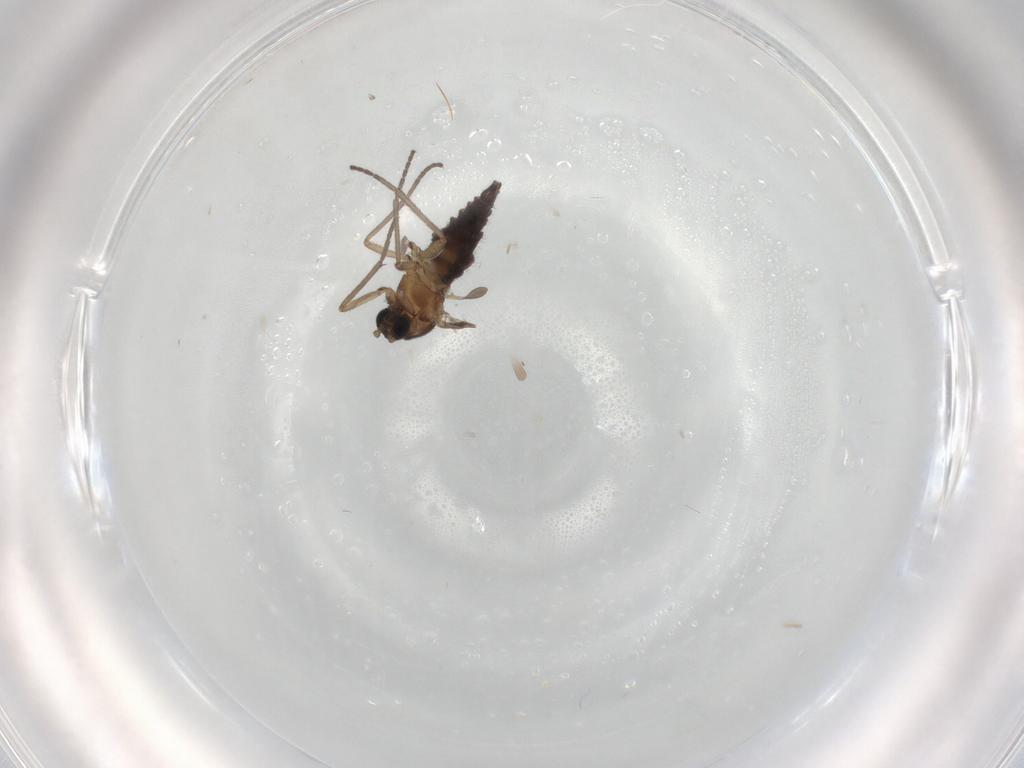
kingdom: Animalia
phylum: Arthropoda
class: Insecta
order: Diptera
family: Sciaridae
